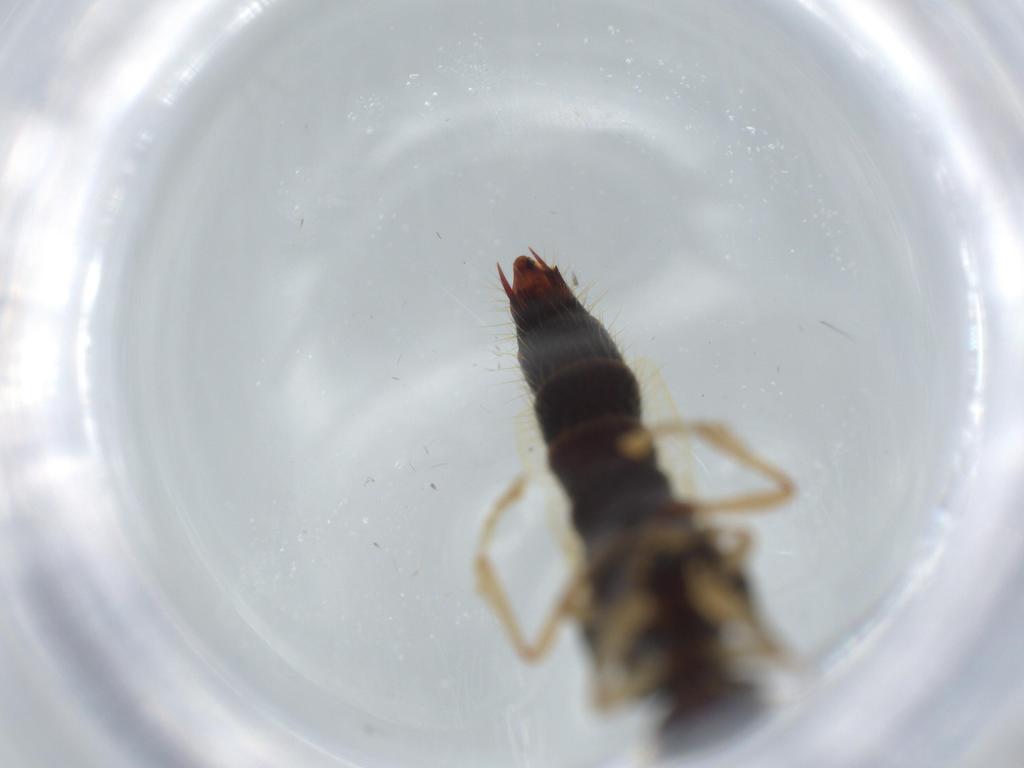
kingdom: Animalia
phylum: Arthropoda
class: Insecta
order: Coleoptera
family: Staphylinidae
